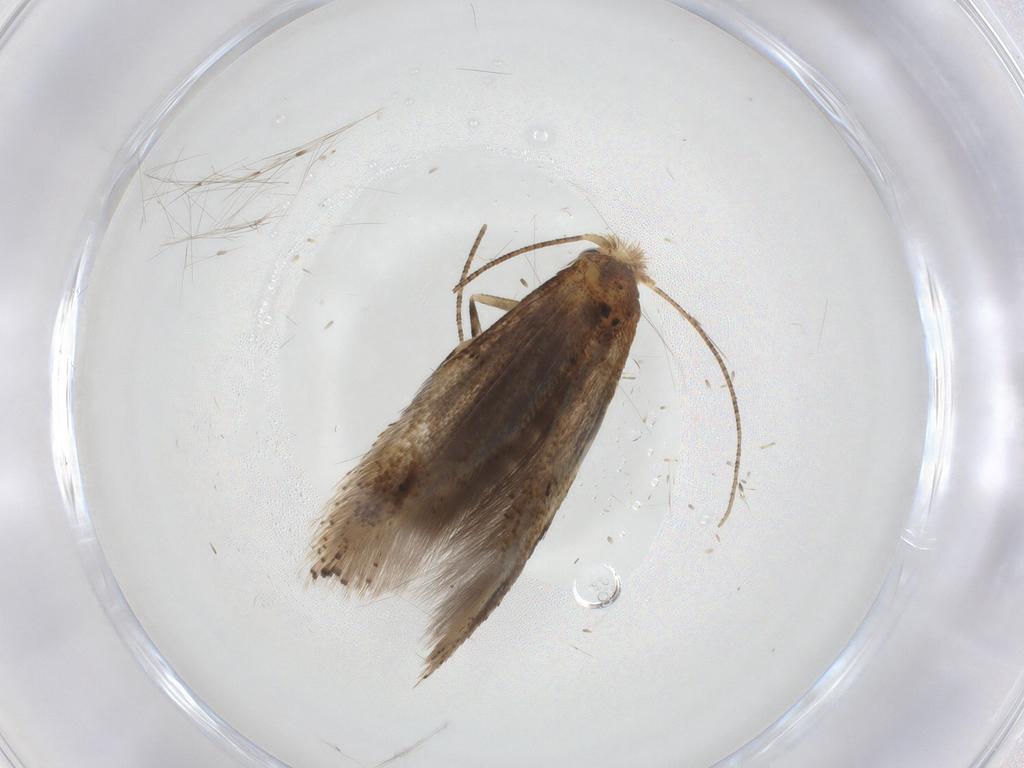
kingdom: Animalia
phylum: Arthropoda
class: Insecta
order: Lepidoptera
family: Bucculatricidae
